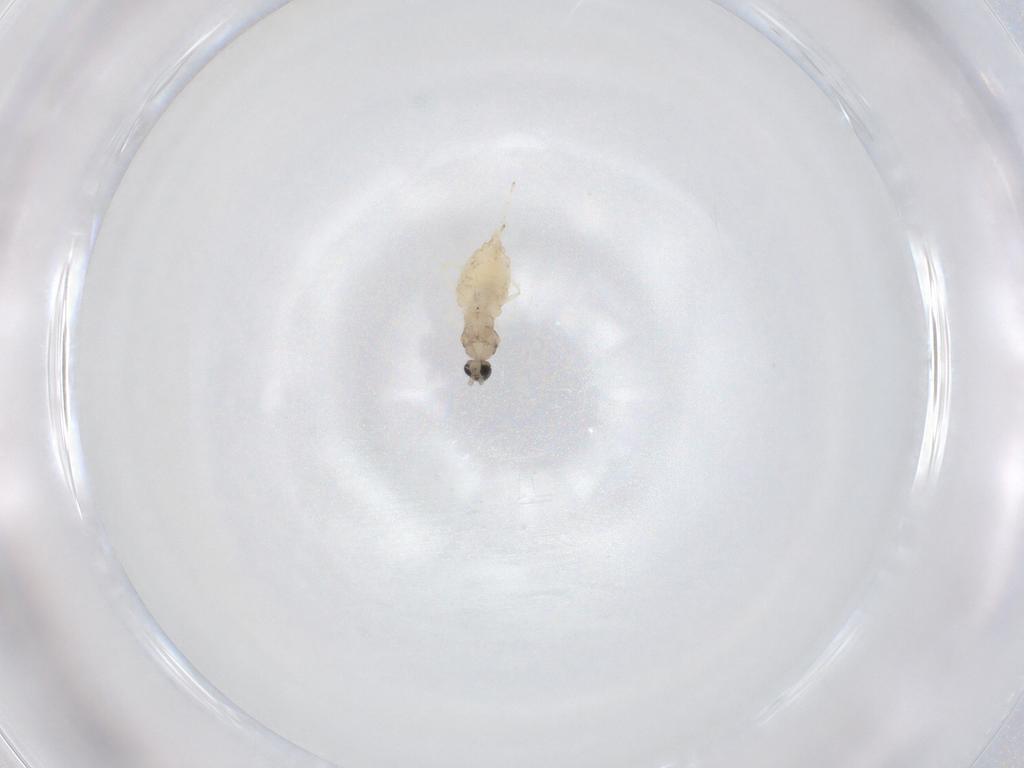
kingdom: Animalia
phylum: Arthropoda
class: Insecta
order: Diptera
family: Cecidomyiidae
